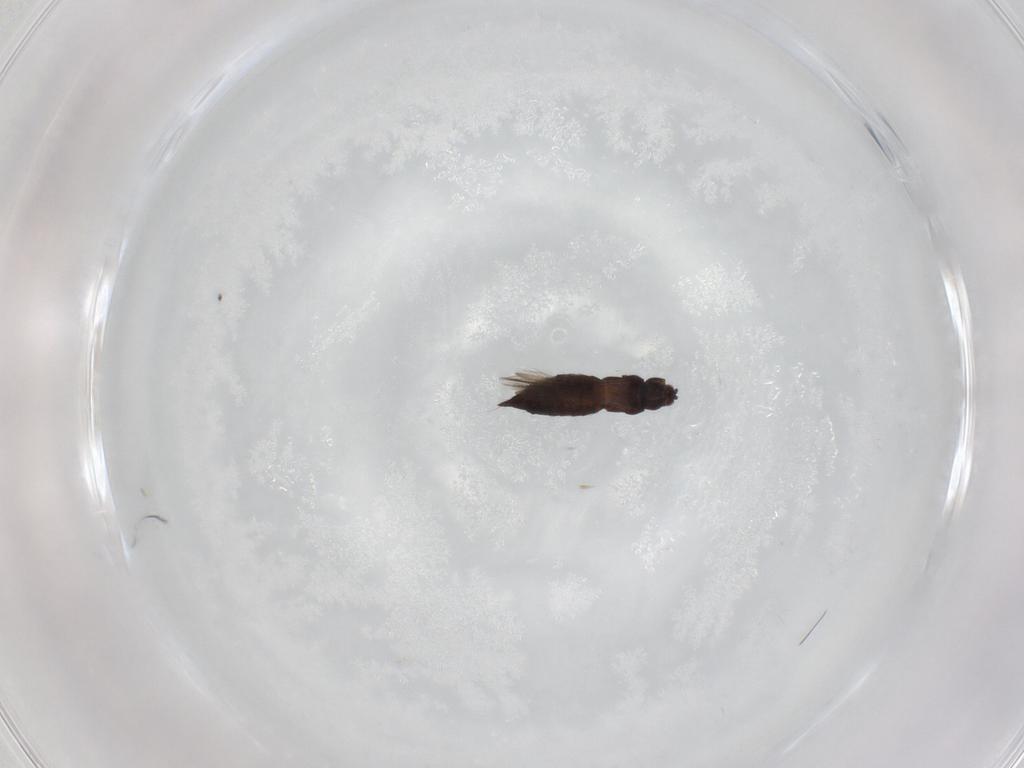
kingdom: Animalia
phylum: Arthropoda
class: Insecta
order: Thysanoptera
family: Thripidae
